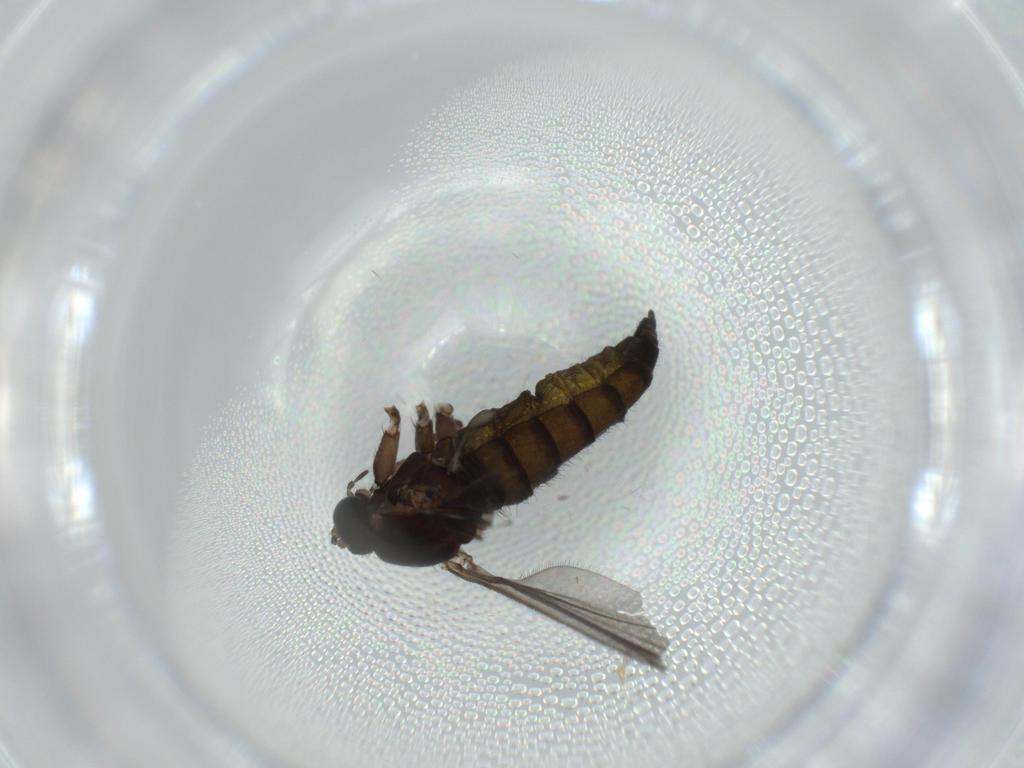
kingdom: Animalia
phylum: Arthropoda
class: Insecta
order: Diptera
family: Sciaridae
